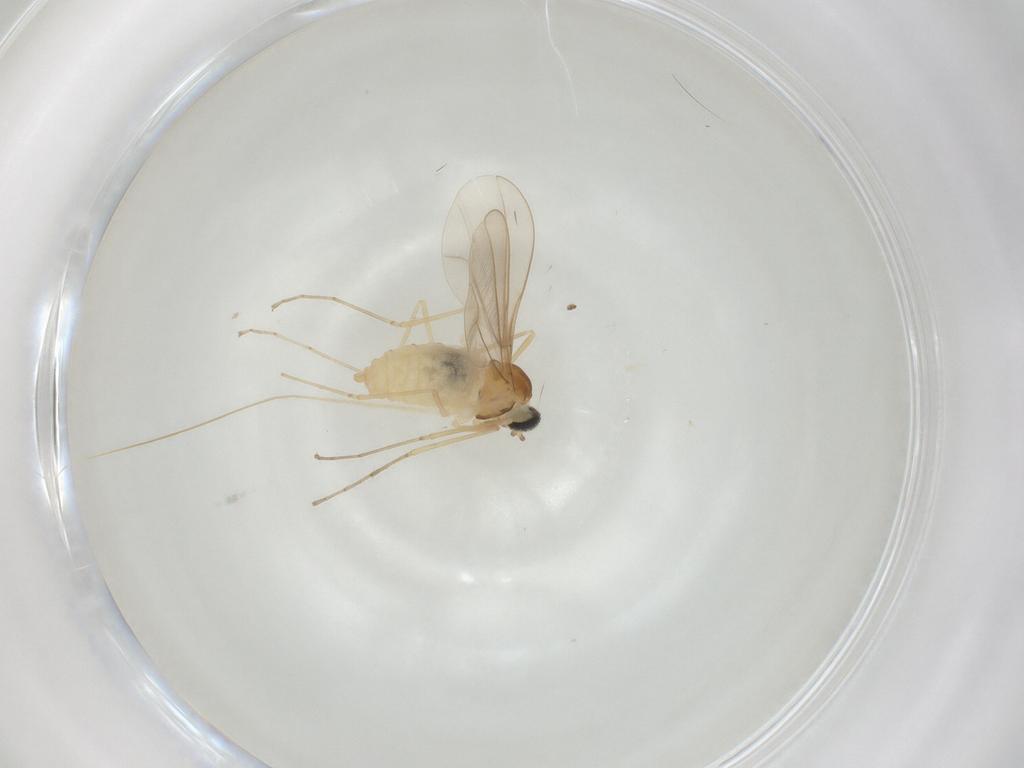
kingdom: Animalia
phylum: Arthropoda
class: Insecta
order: Diptera
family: Cecidomyiidae
